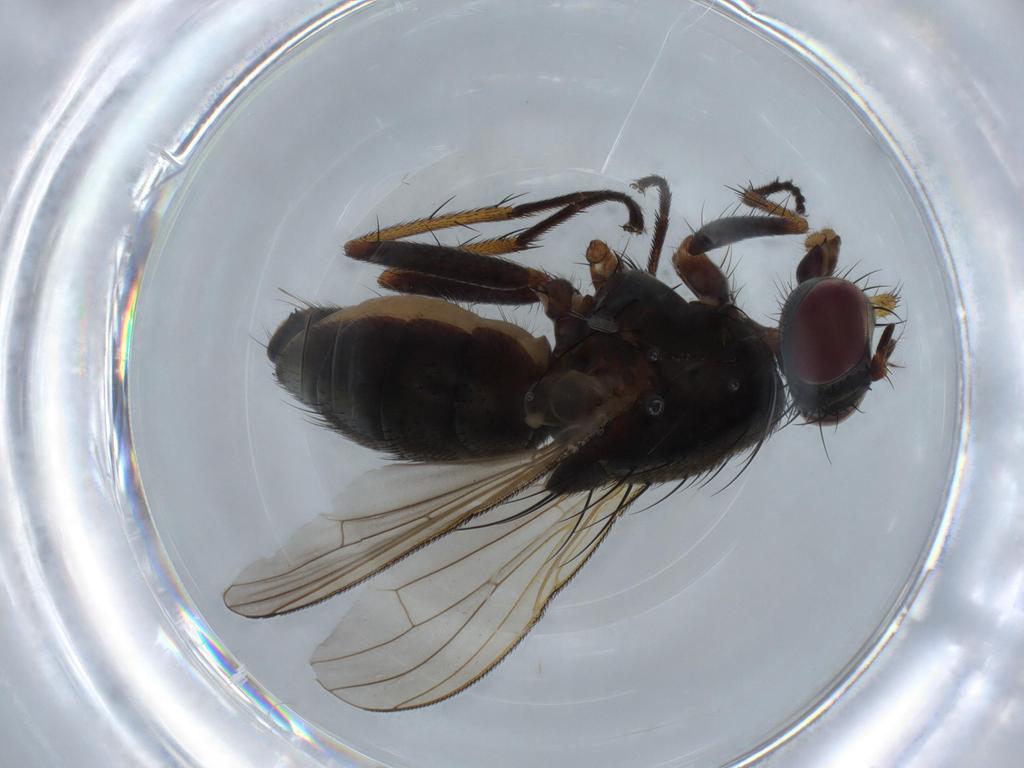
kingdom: Animalia
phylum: Arthropoda
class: Insecta
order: Diptera
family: Muscidae
